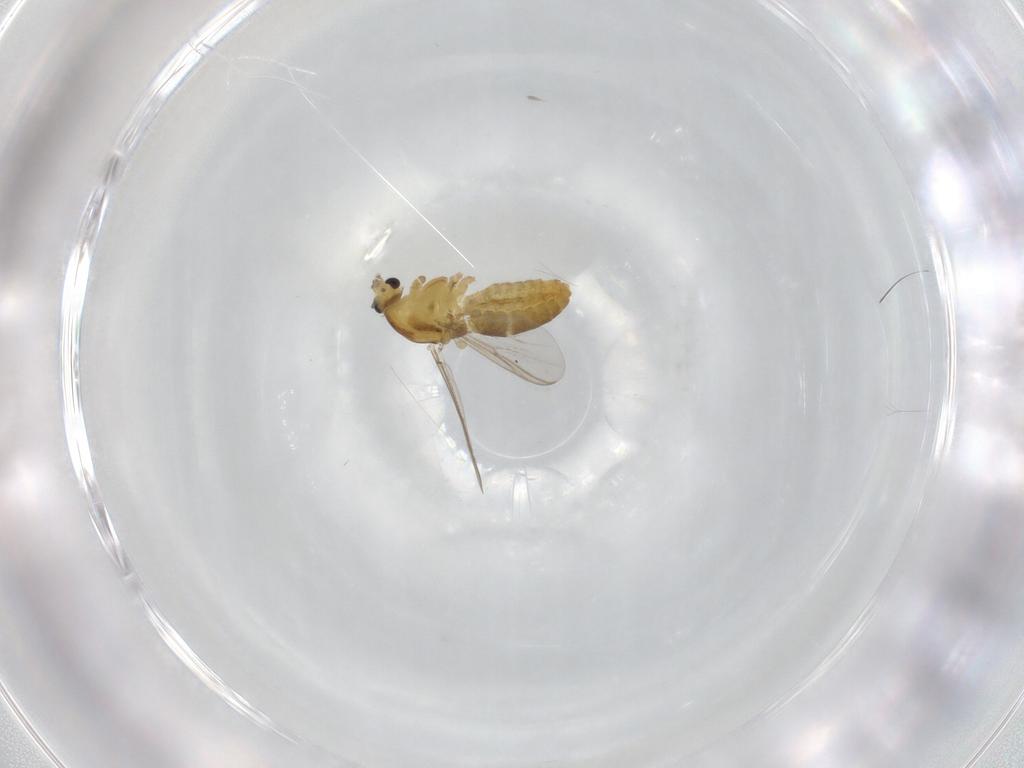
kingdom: Animalia
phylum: Arthropoda
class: Insecta
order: Diptera
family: Chironomidae
